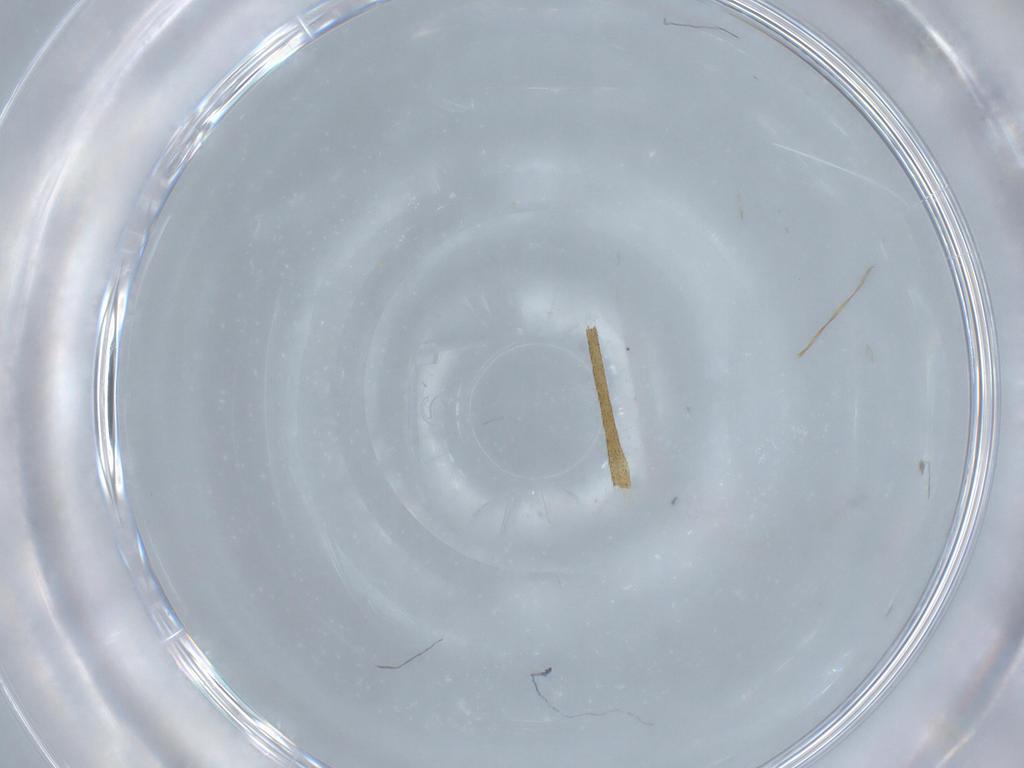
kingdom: Animalia
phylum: Arthropoda
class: Insecta
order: Diptera
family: Limoniidae
